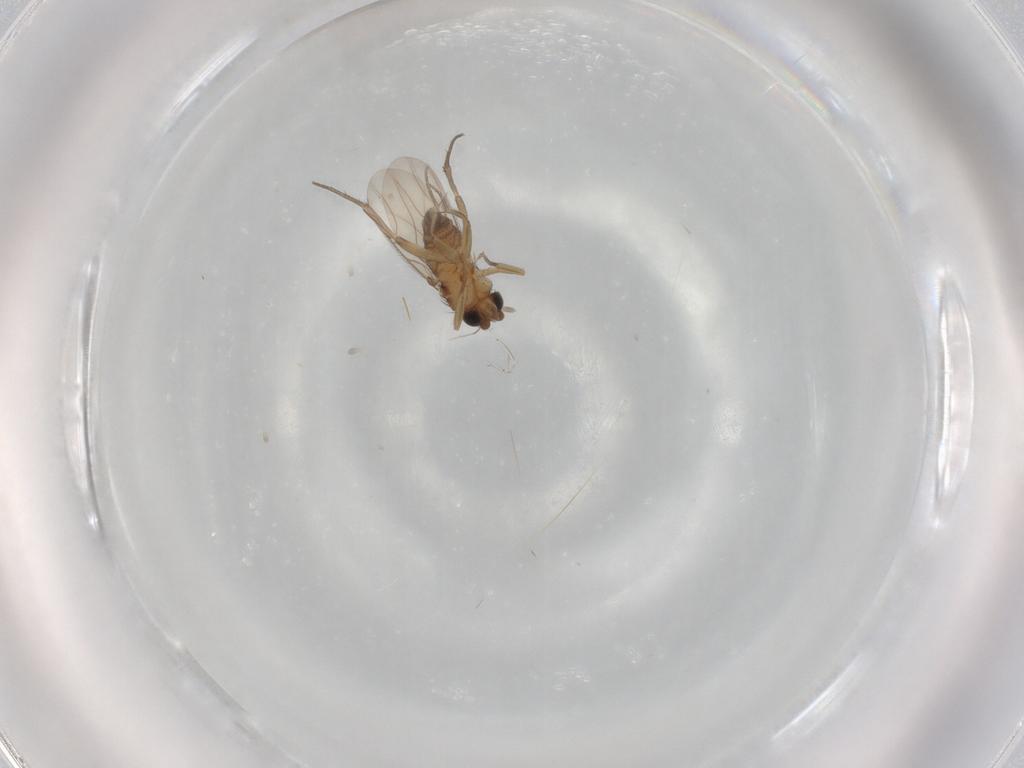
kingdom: Animalia
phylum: Arthropoda
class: Insecta
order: Diptera
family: Phoridae
